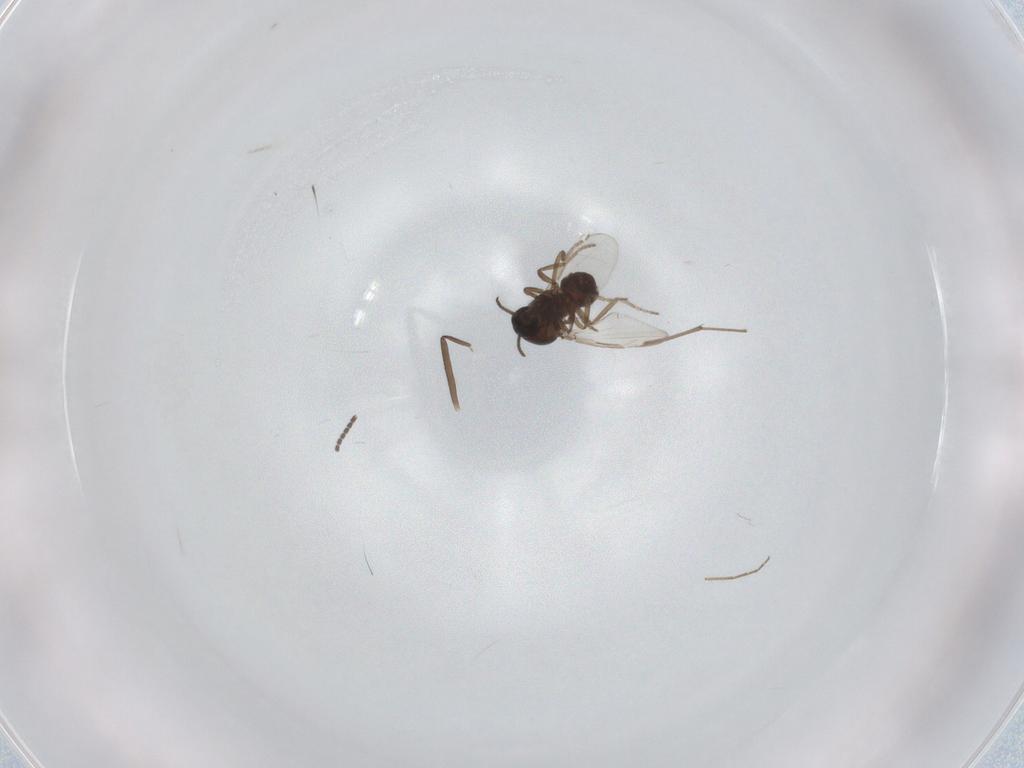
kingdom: Animalia
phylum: Arthropoda
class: Insecta
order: Diptera
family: Chironomidae
